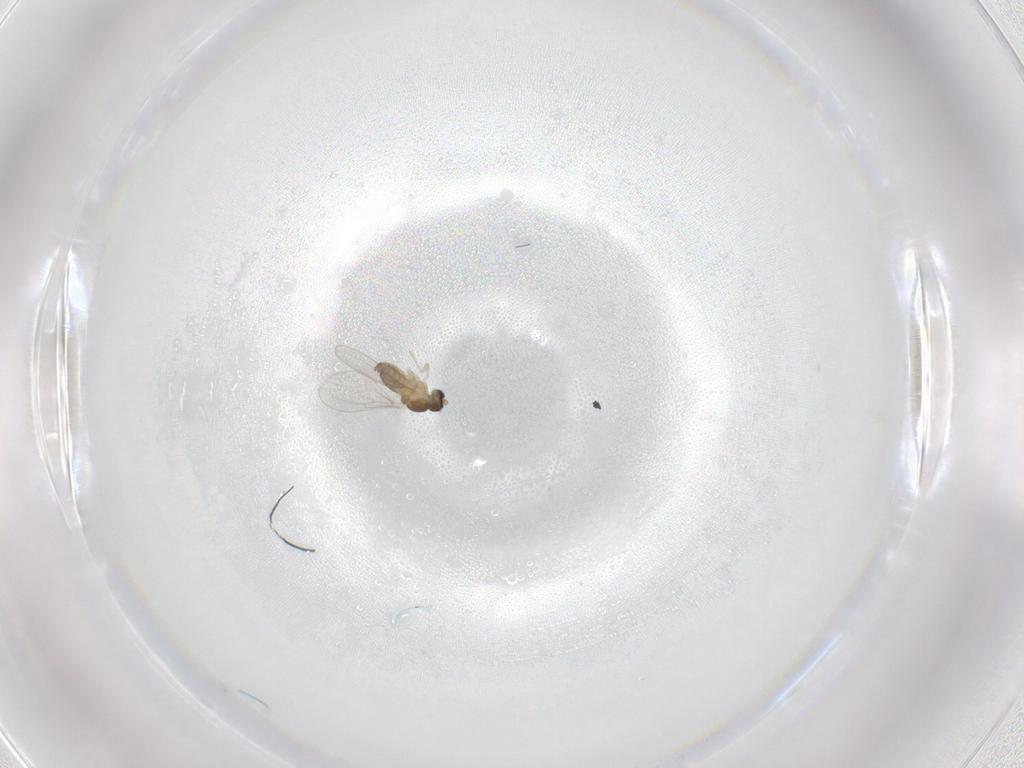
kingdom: Animalia
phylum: Arthropoda
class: Insecta
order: Diptera
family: Cecidomyiidae
